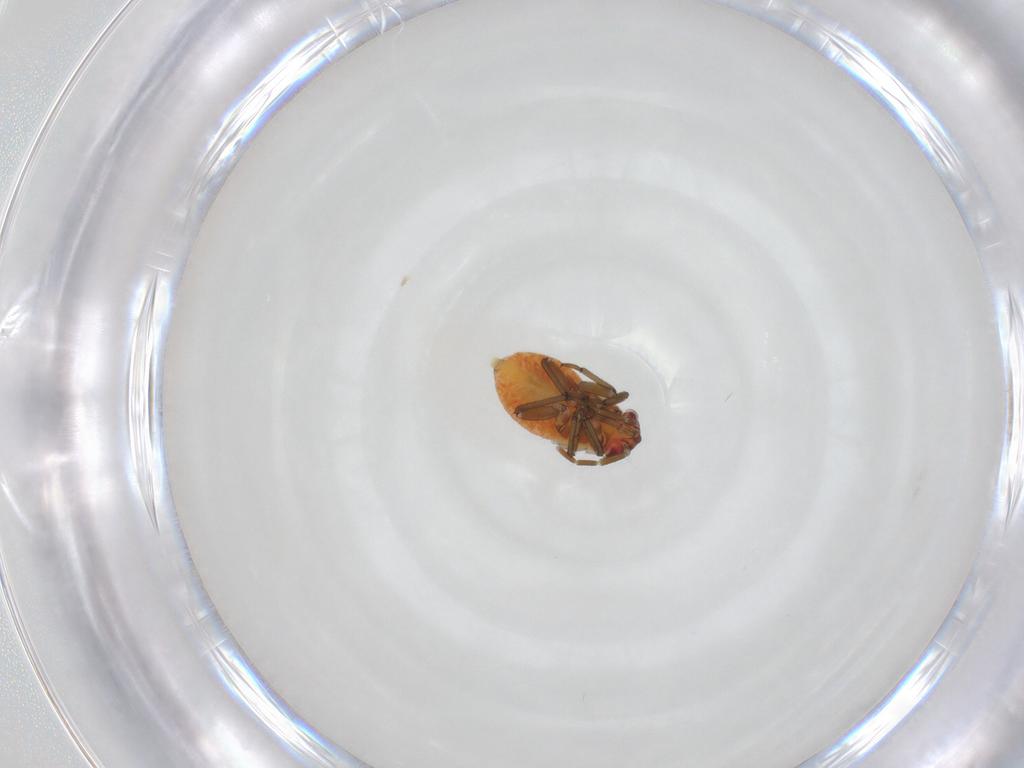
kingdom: Animalia
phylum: Arthropoda
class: Insecta
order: Hemiptera
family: Miridae
